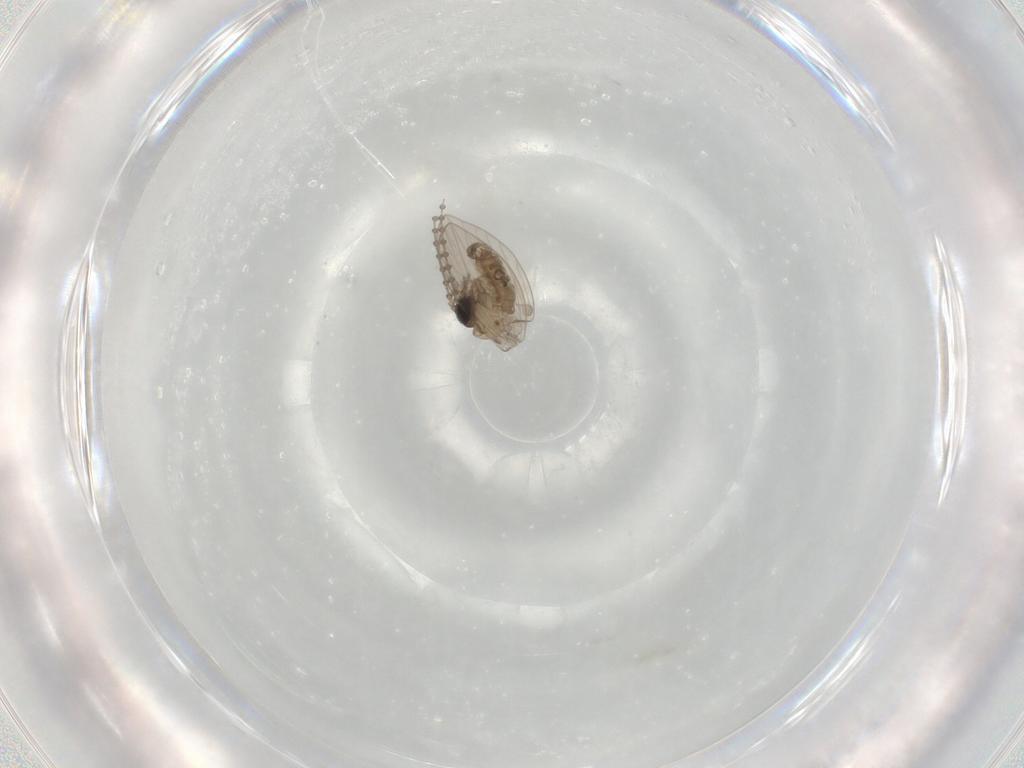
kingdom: Animalia
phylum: Arthropoda
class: Insecta
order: Diptera
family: Psychodidae
